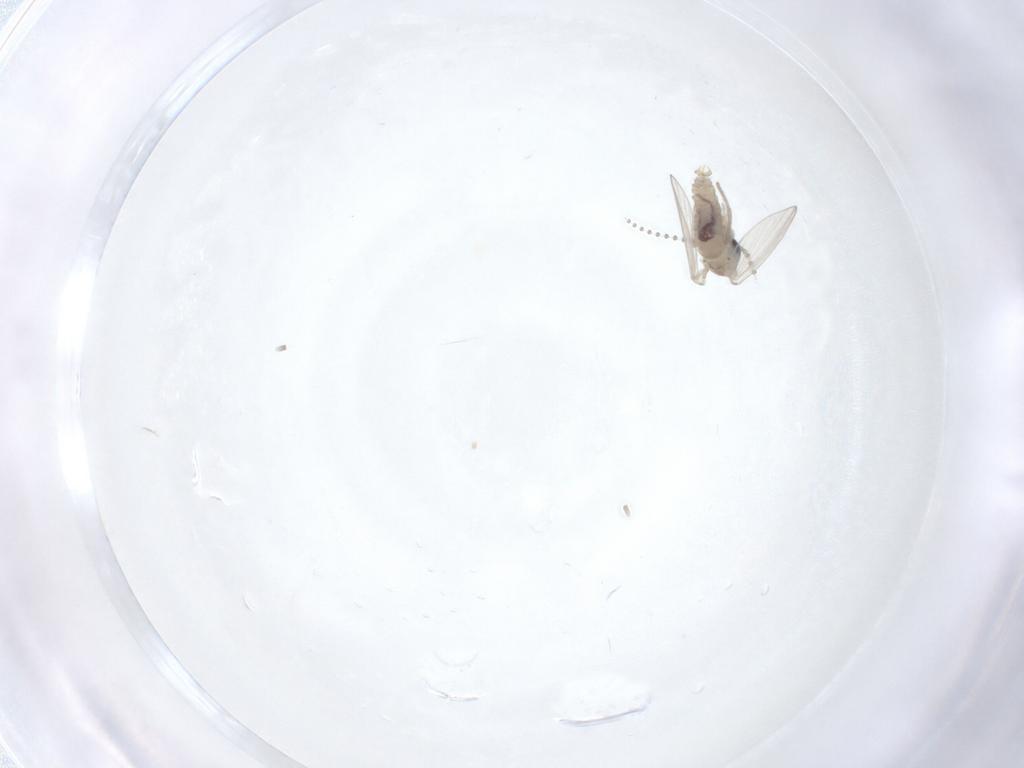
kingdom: Animalia
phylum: Arthropoda
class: Insecta
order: Diptera
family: Psychodidae
